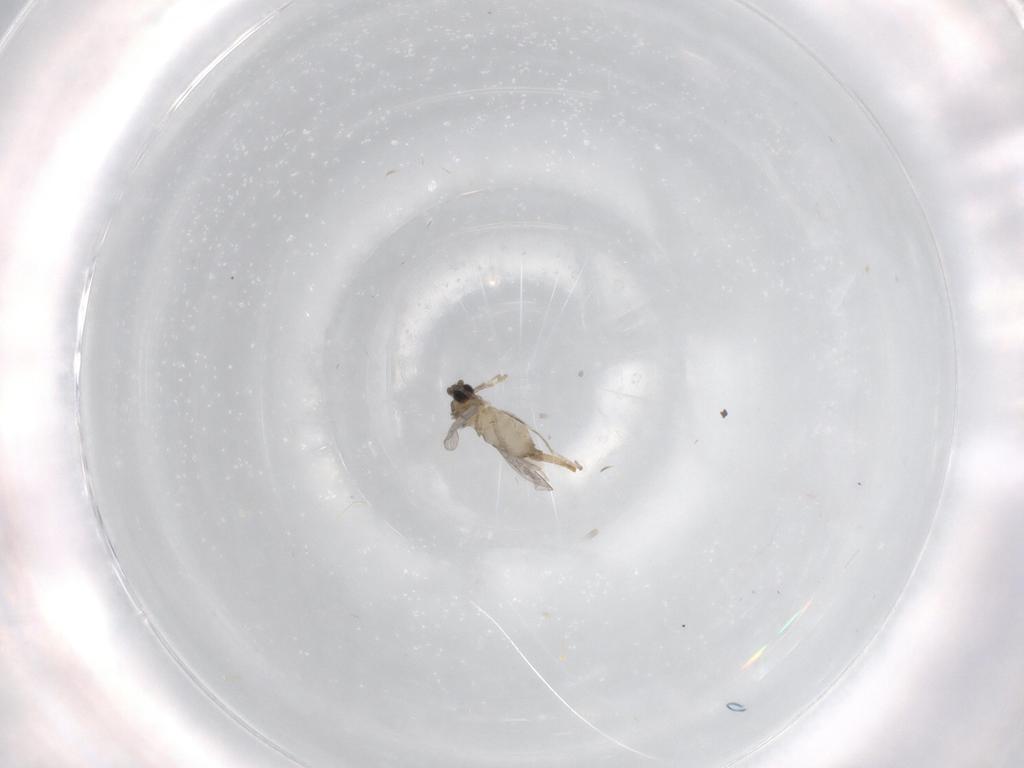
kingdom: Animalia
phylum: Arthropoda
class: Insecta
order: Diptera
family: Cecidomyiidae
